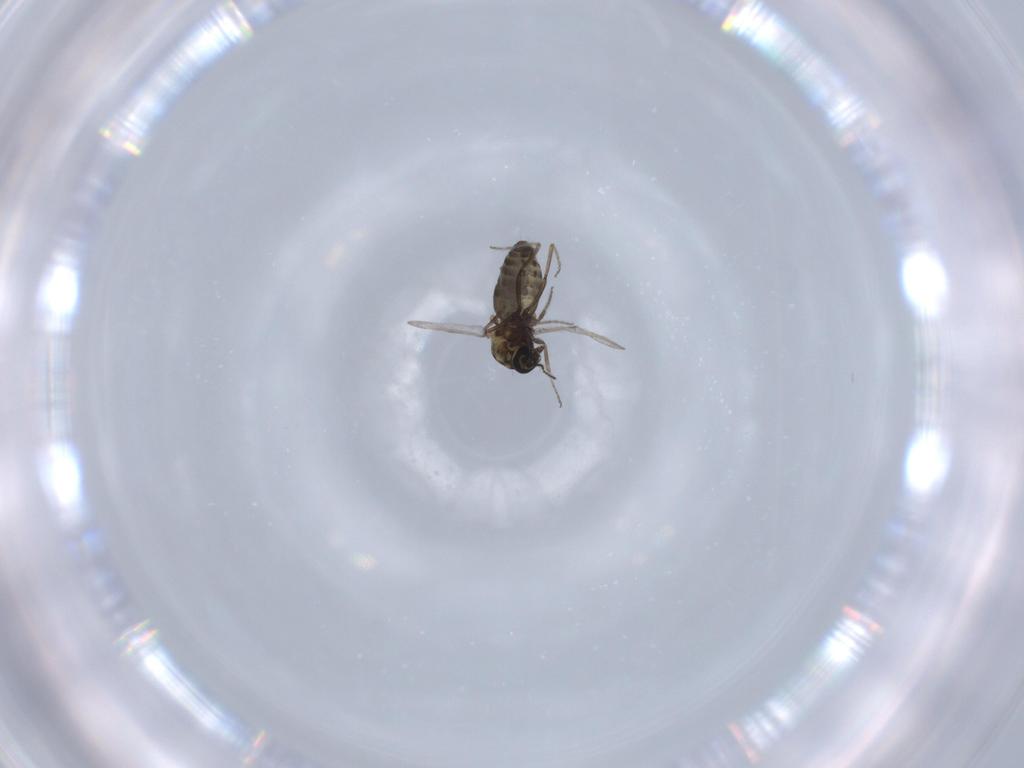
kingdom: Animalia
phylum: Arthropoda
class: Insecta
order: Diptera
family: Ceratopogonidae
